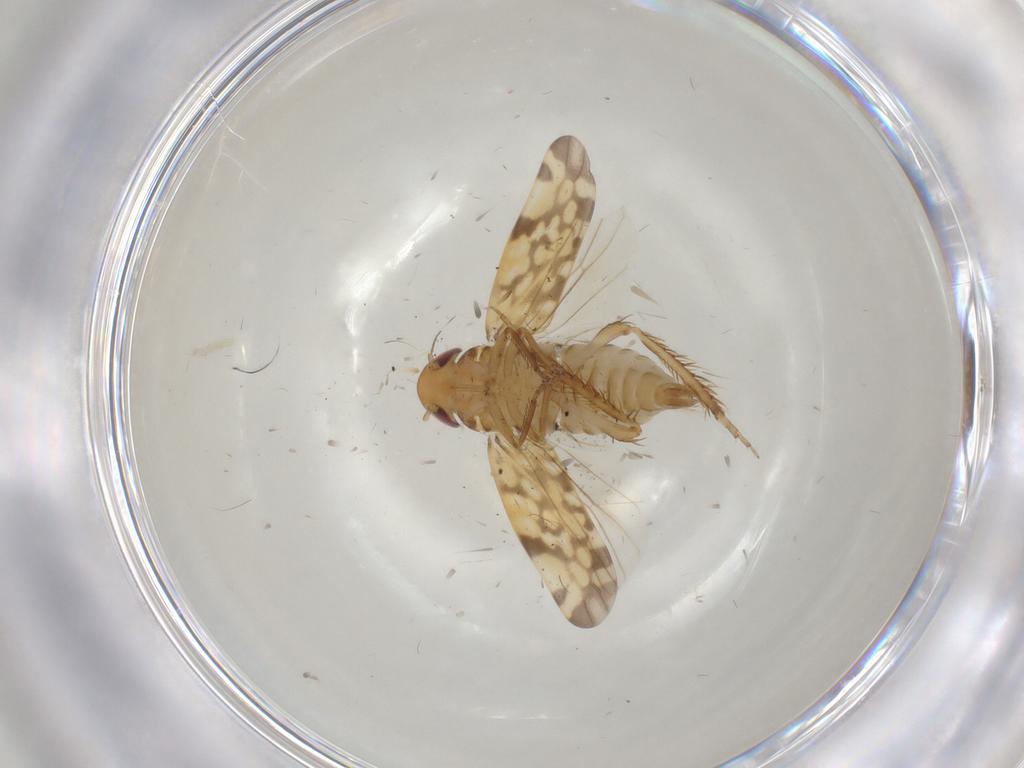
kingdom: Animalia
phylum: Arthropoda
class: Insecta
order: Hemiptera
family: Cicadellidae
